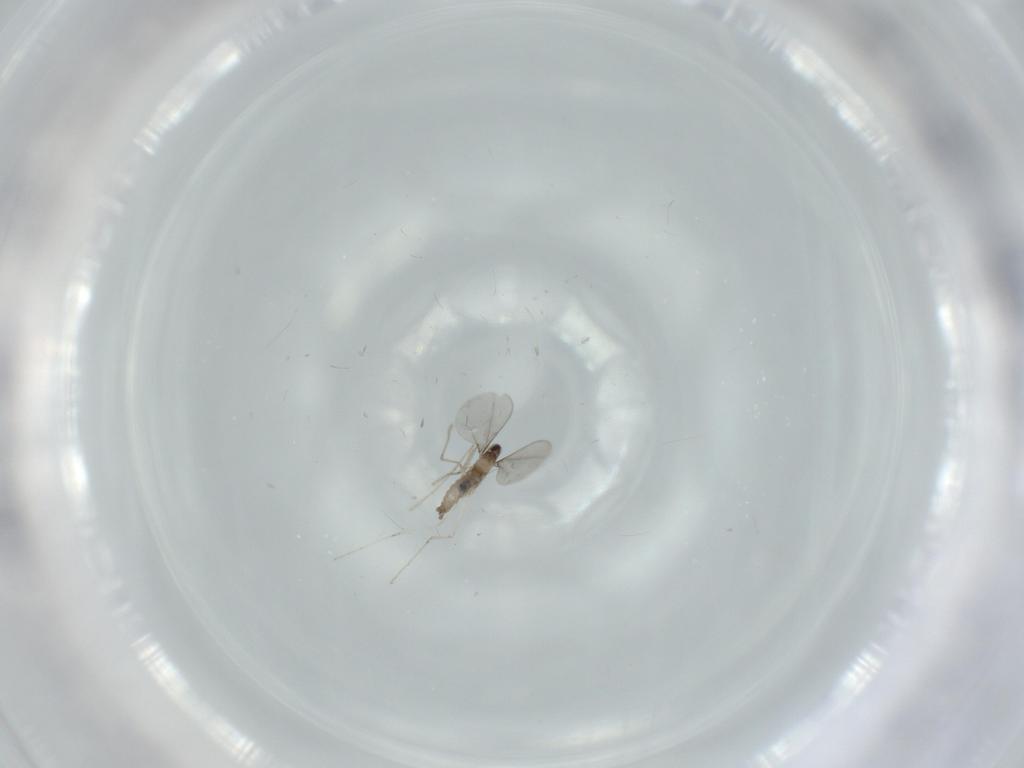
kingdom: Animalia
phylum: Arthropoda
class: Insecta
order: Diptera
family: Cecidomyiidae
